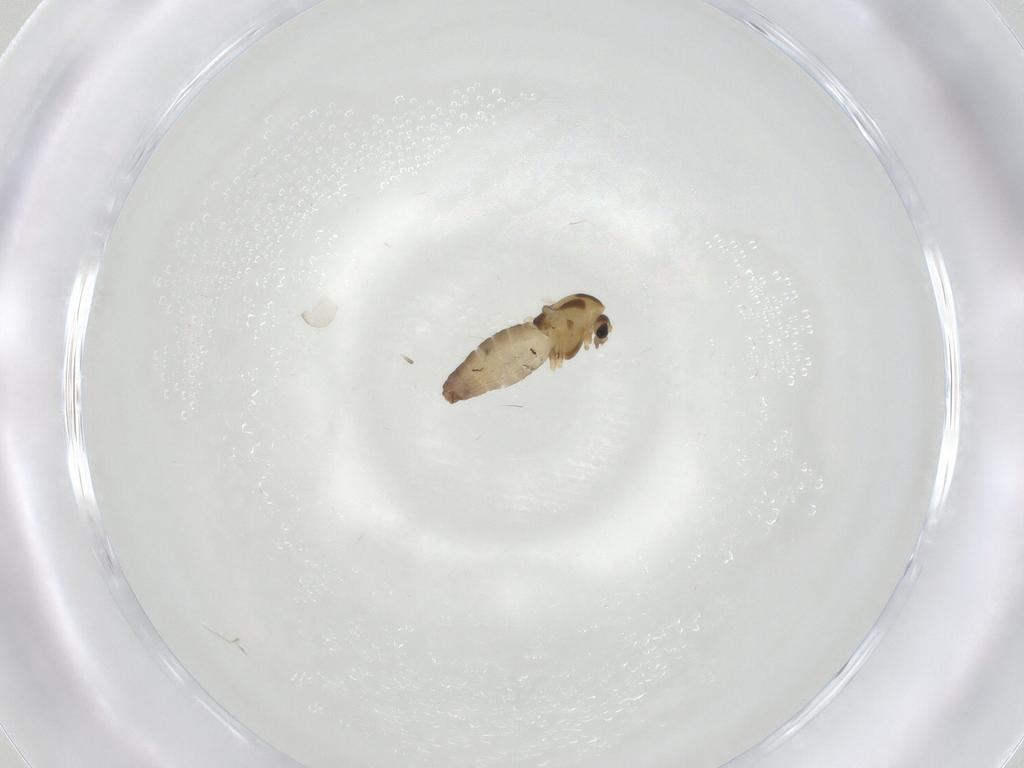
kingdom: Animalia
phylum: Arthropoda
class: Insecta
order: Diptera
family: Chironomidae
